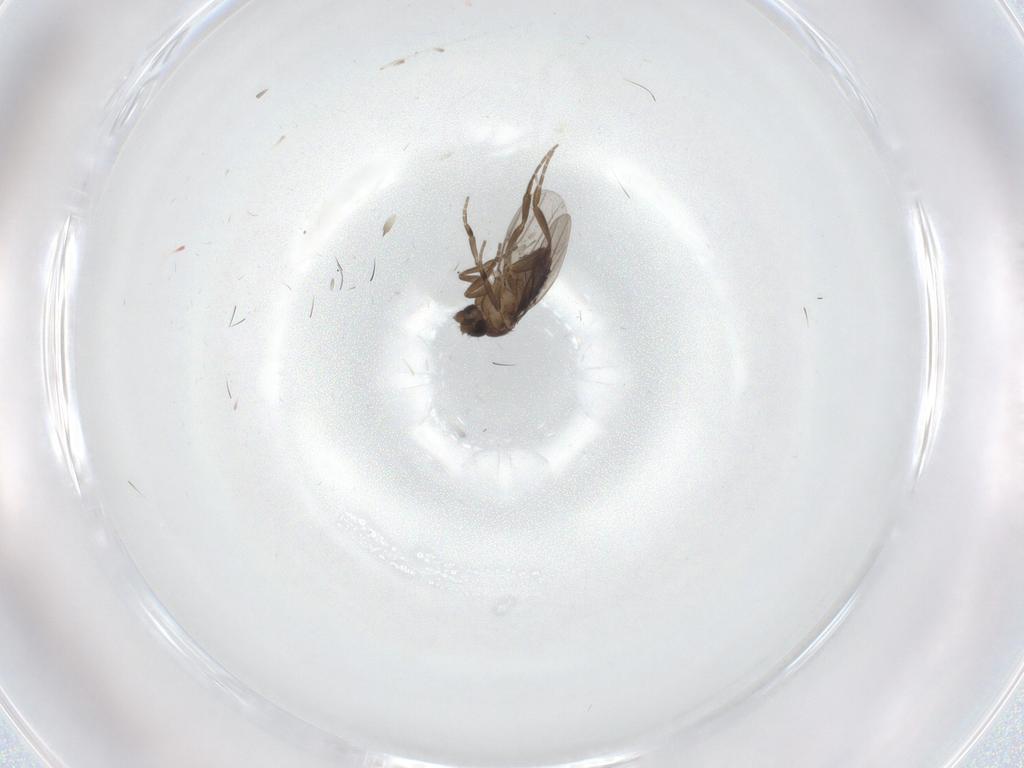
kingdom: Animalia
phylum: Arthropoda
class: Insecta
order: Diptera
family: Phoridae
